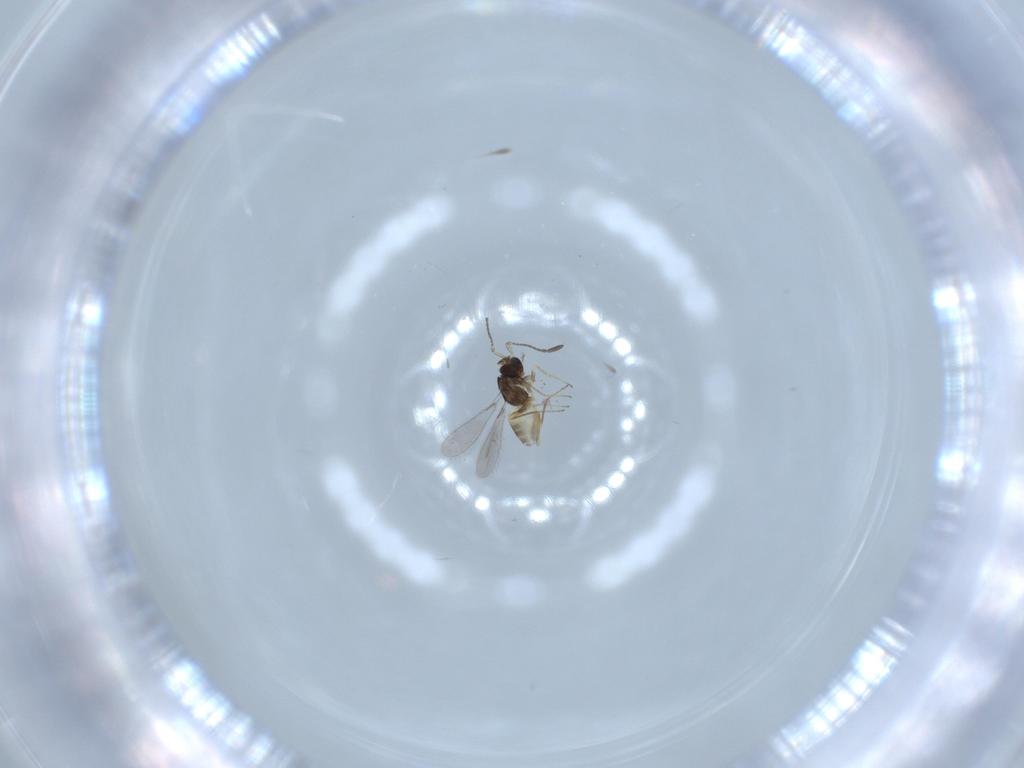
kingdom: Animalia
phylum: Arthropoda
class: Insecta
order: Hymenoptera
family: Mymaridae
